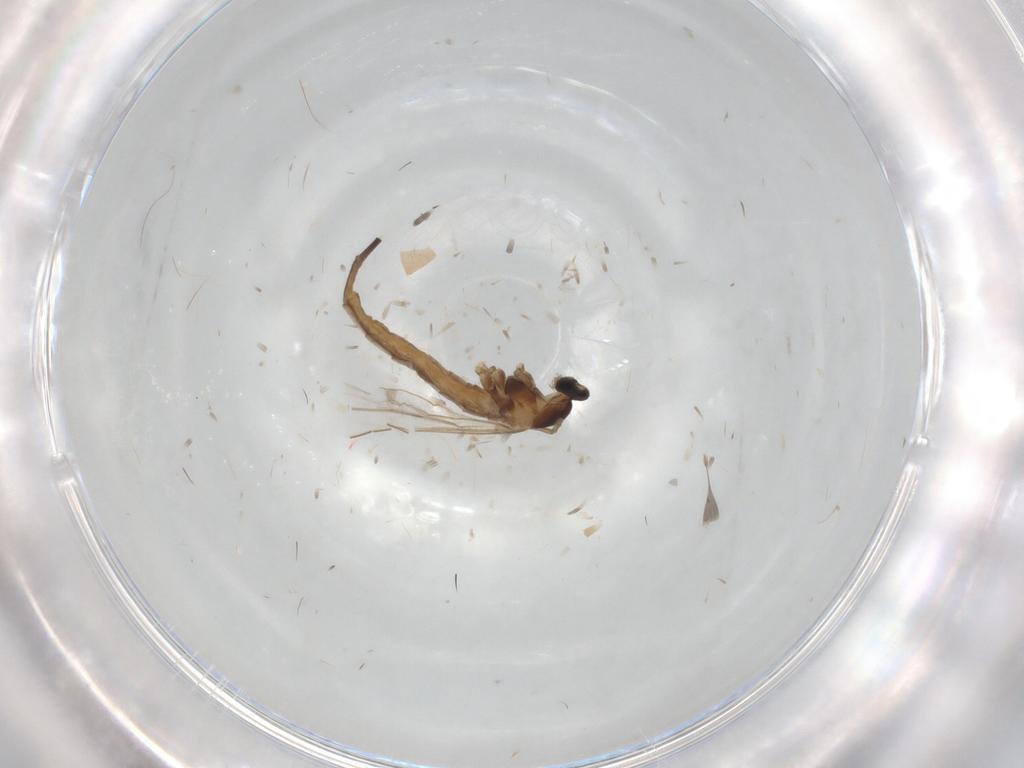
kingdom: Animalia
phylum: Arthropoda
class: Insecta
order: Diptera
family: Glossinidae
